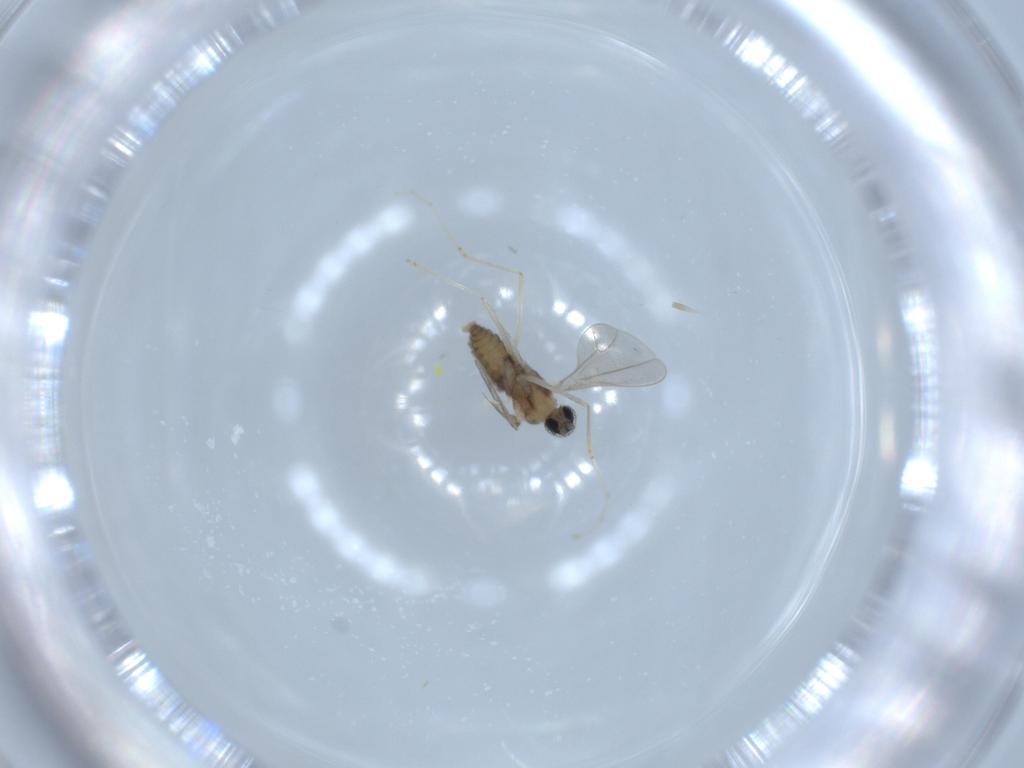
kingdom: Animalia
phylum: Arthropoda
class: Insecta
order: Diptera
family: Cecidomyiidae
